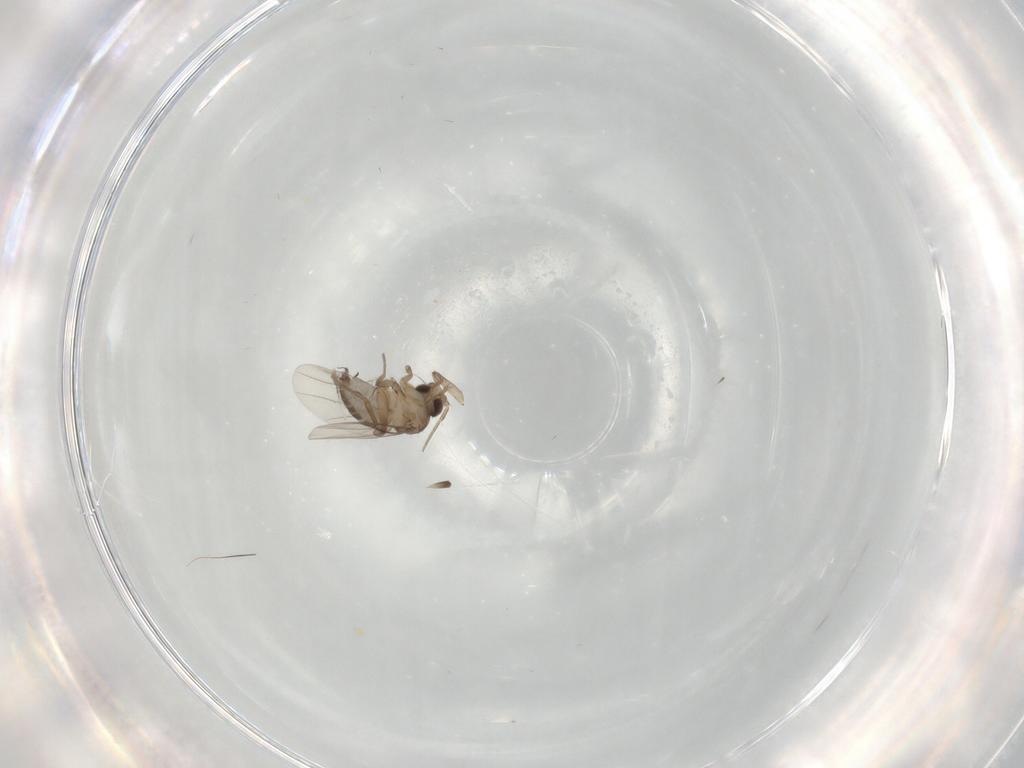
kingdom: Animalia
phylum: Arthropoda
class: Insecta
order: Diptera
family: Phoridae
